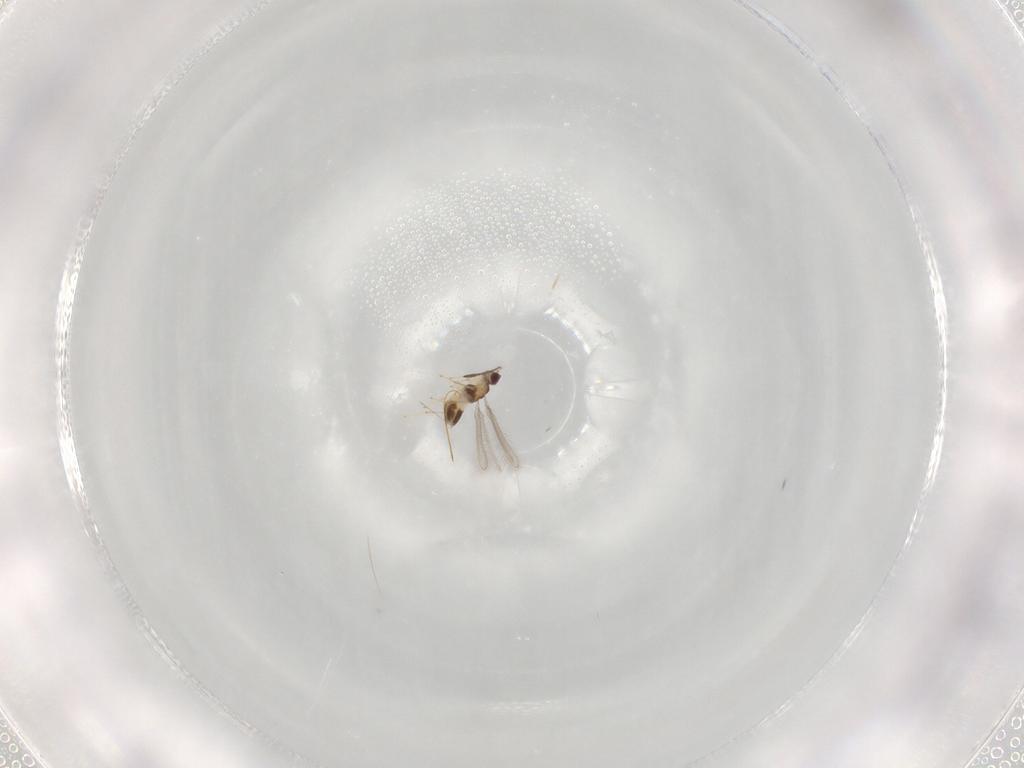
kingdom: Animalia
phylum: Arthropoda
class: Insecta
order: Hymenoptera
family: Mymaridae
